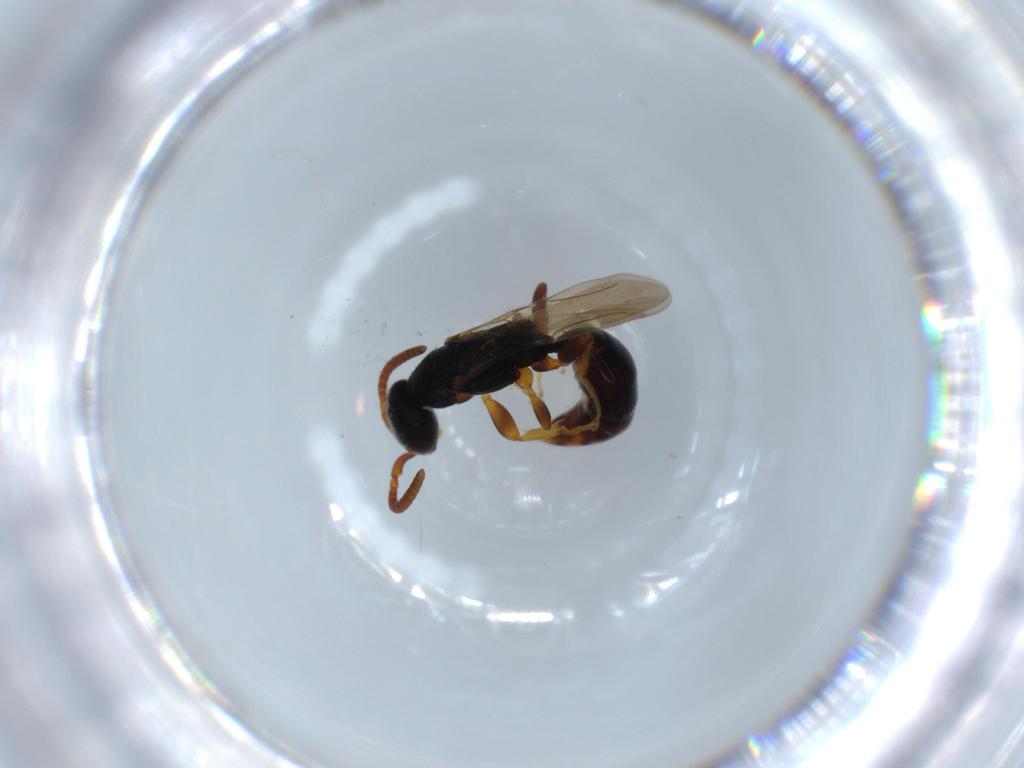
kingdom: Animalia
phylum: Arthropoda
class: Insecta
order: Hymenoptera
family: Bethylidae
